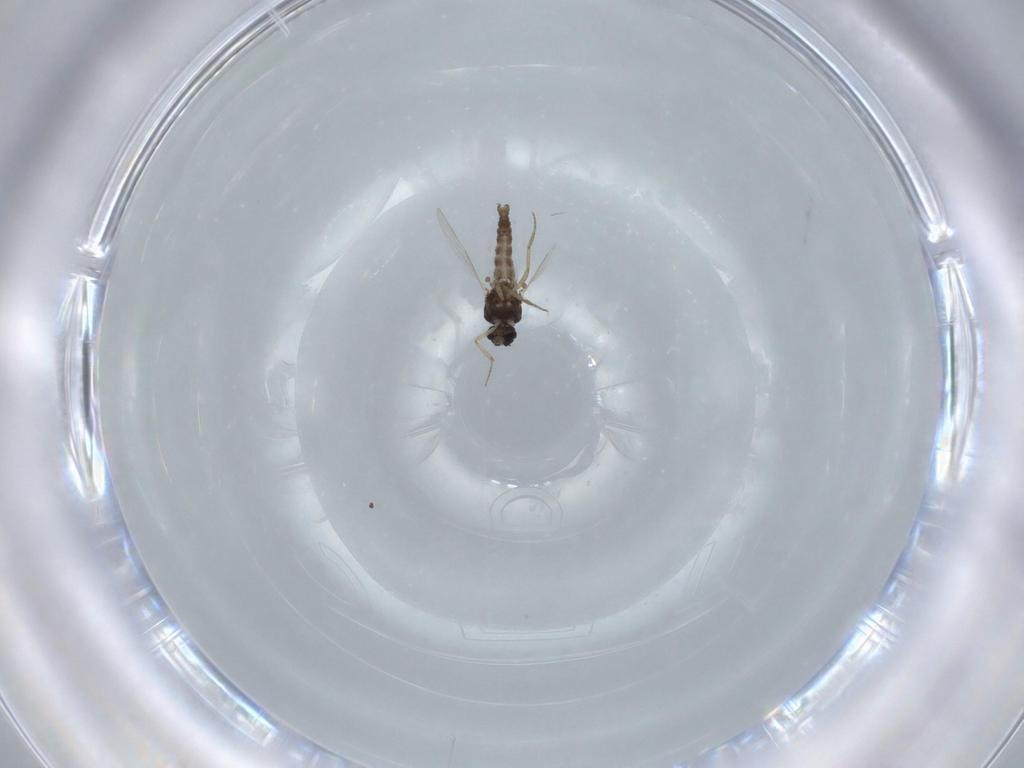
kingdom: Animalia
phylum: Arthropoda
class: Insecta
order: Diptera
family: Ceratopogonidae
